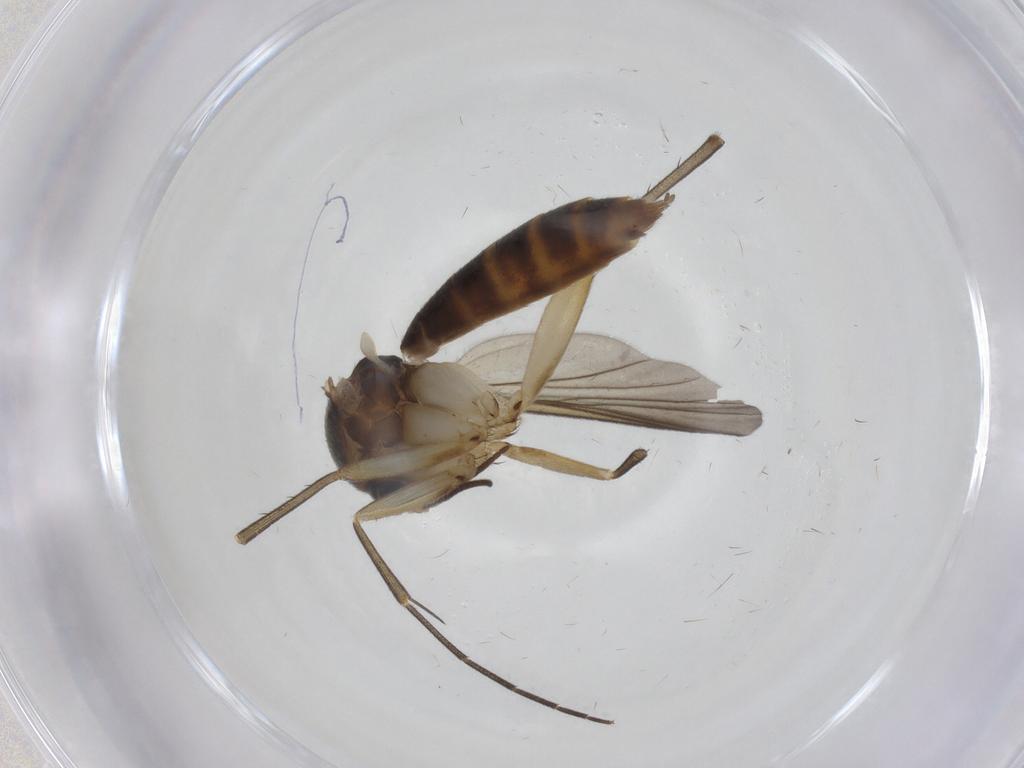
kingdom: Animalia
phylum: Arthropoda
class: Insecta
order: Diptera
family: Mycetophilidae
